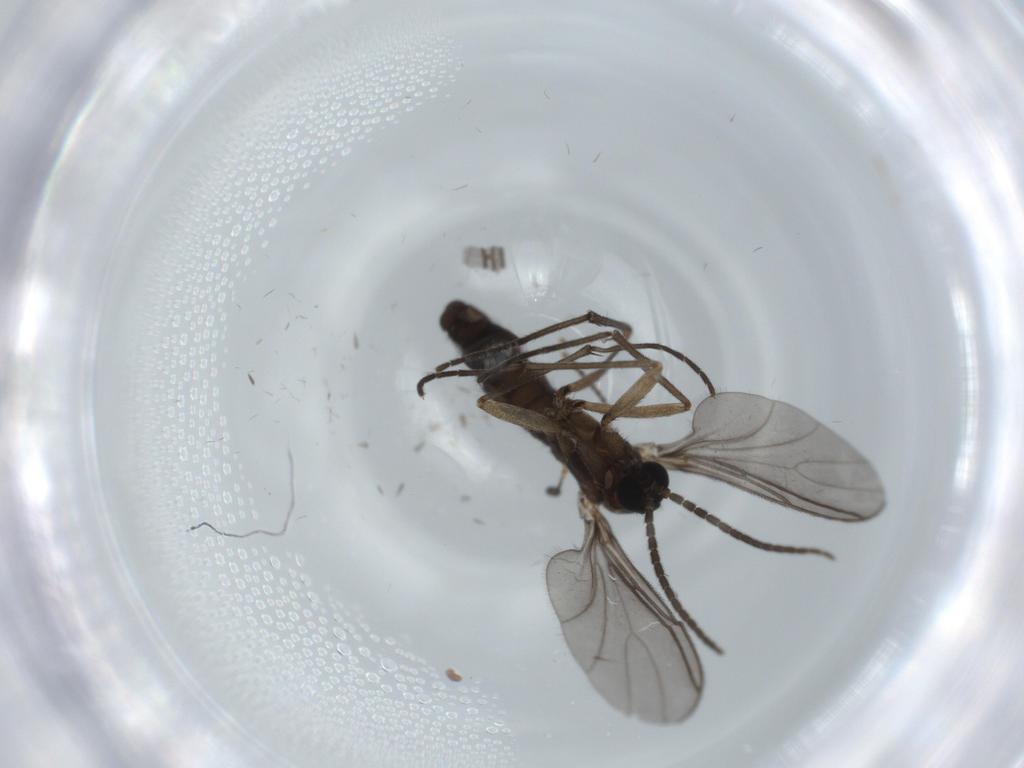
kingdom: Animalia
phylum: Arthropoda
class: Insecta
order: Diptera
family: Sciaridae
